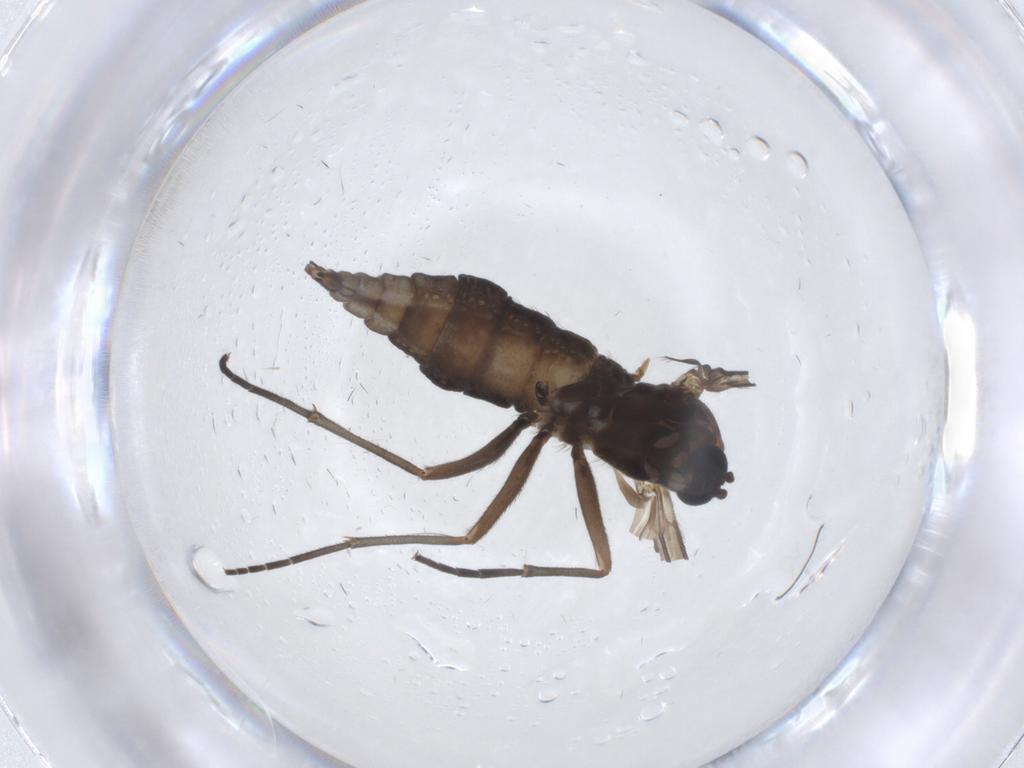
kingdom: Animalia
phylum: Arthropoda
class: Insecta
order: Diptera
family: Sciaridae
